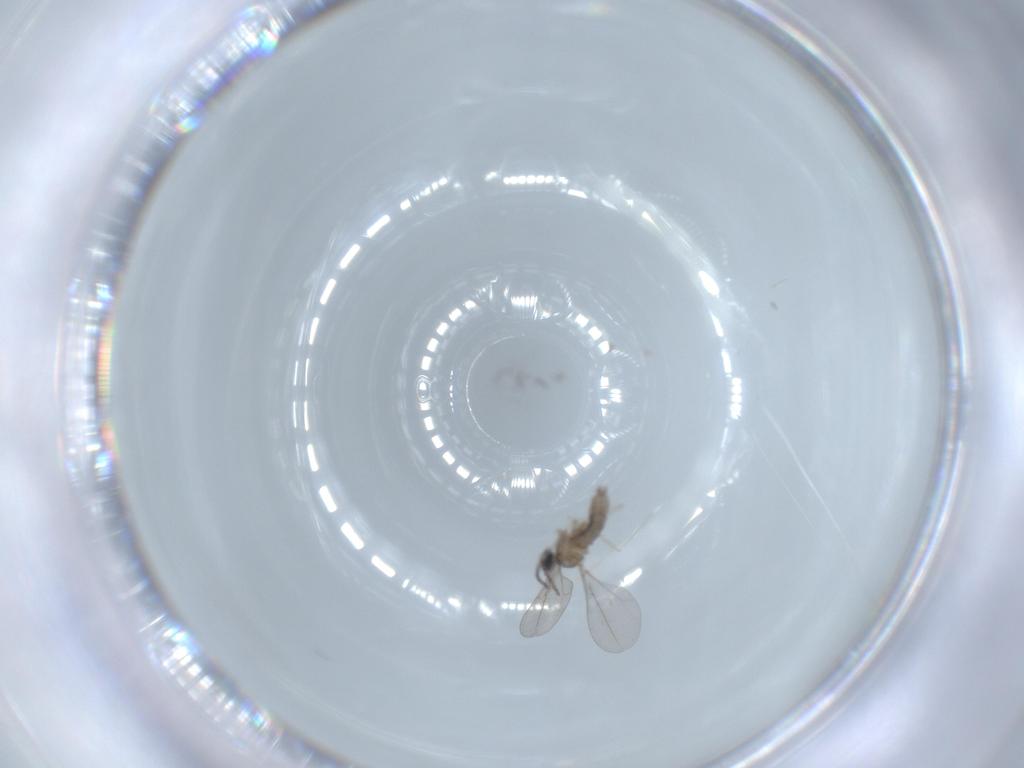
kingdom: Animalia
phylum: Arthropoda
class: Insecta
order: Diptera
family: Cecidomyiidae
